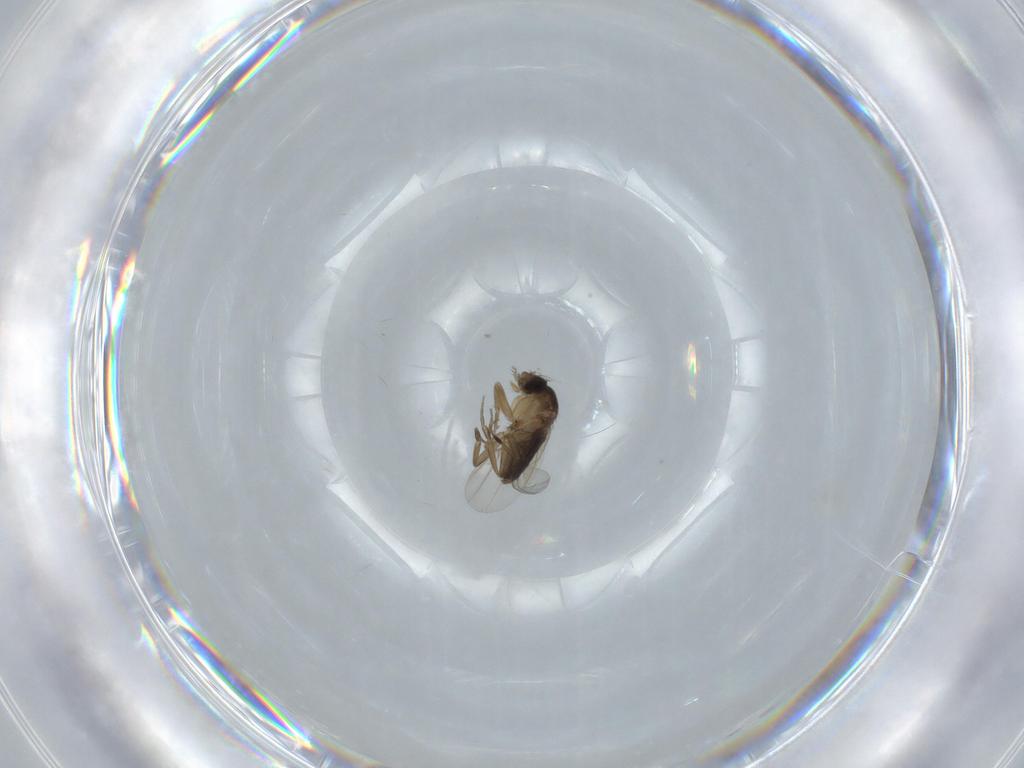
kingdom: Animalia
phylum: Arthropoda
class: Insecta
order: Diptera
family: Phoridae
